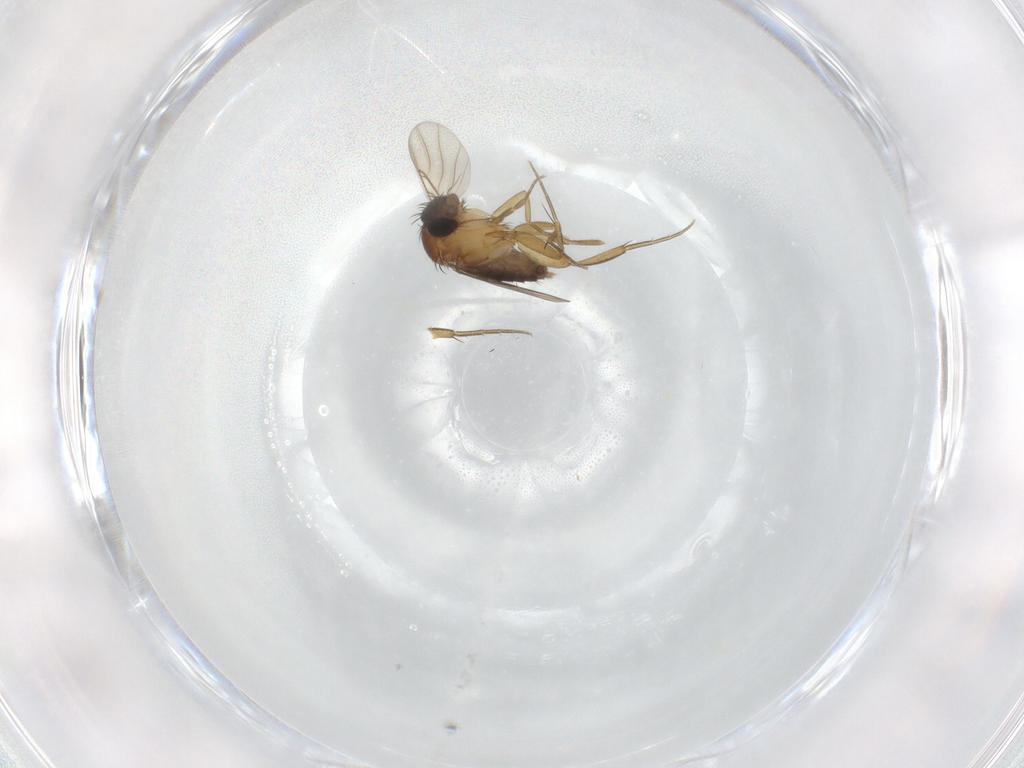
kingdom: Animalia
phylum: Arthropoda
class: Insecta
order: Diptera
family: Phoridae
